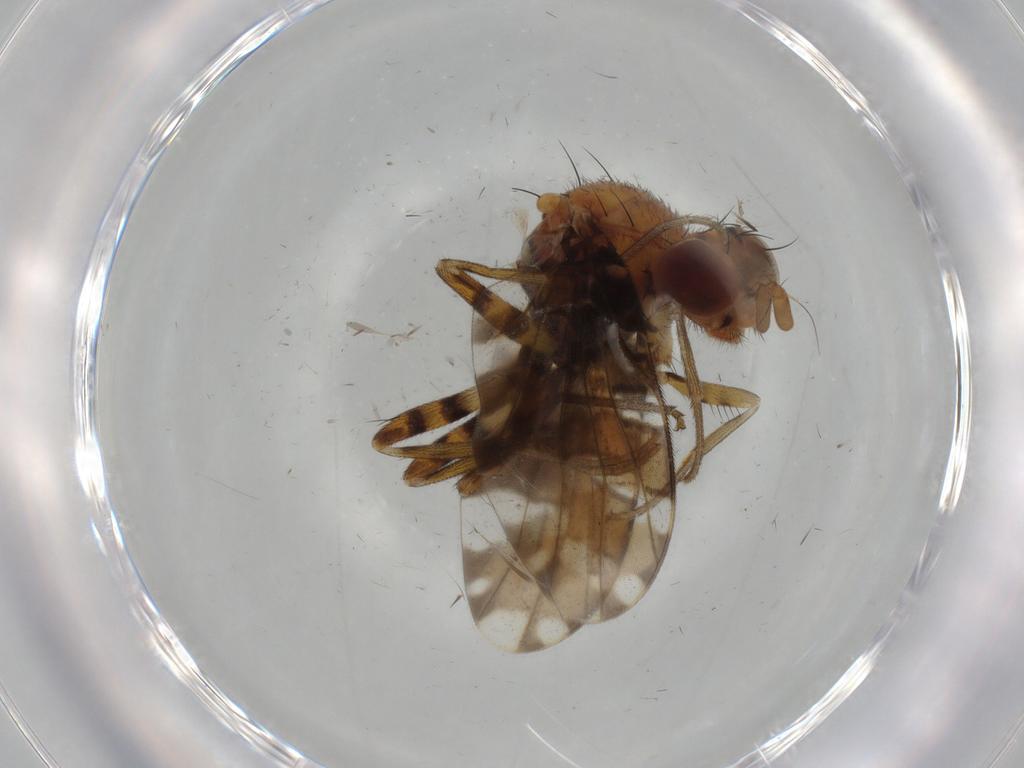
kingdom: Animalia
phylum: Arthropoda
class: Insecta
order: Diptera
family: Ulidiidae
